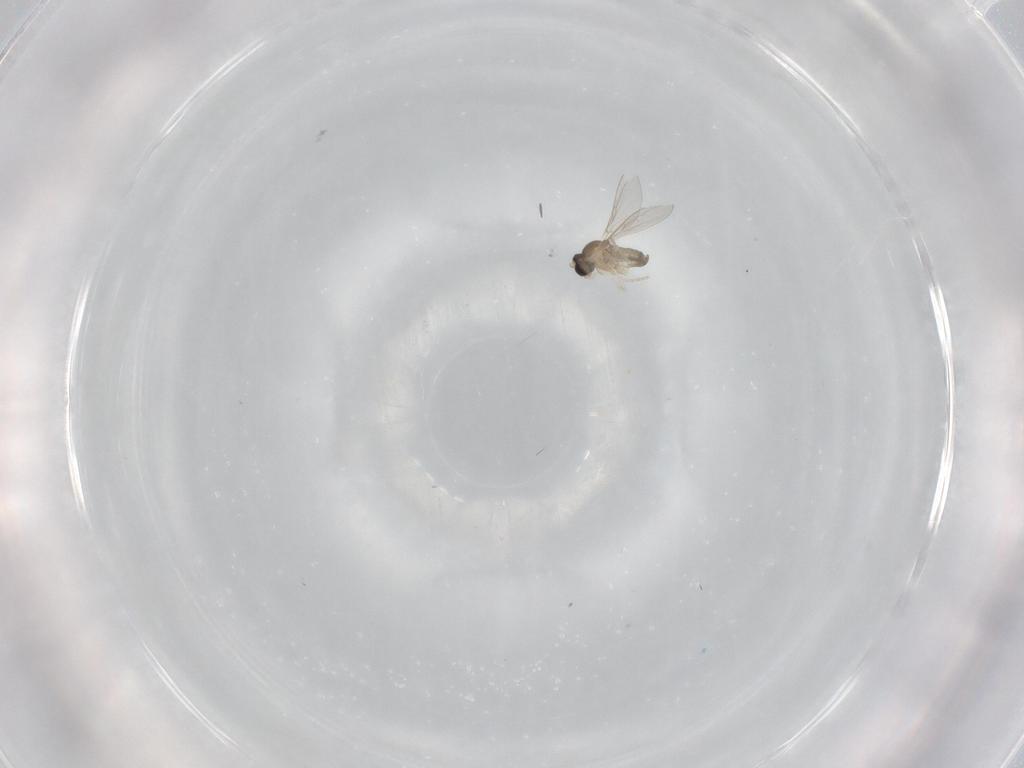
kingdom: Animalia
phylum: Arthropoda
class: Insecta
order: Diptera
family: Cecidomyiidae
